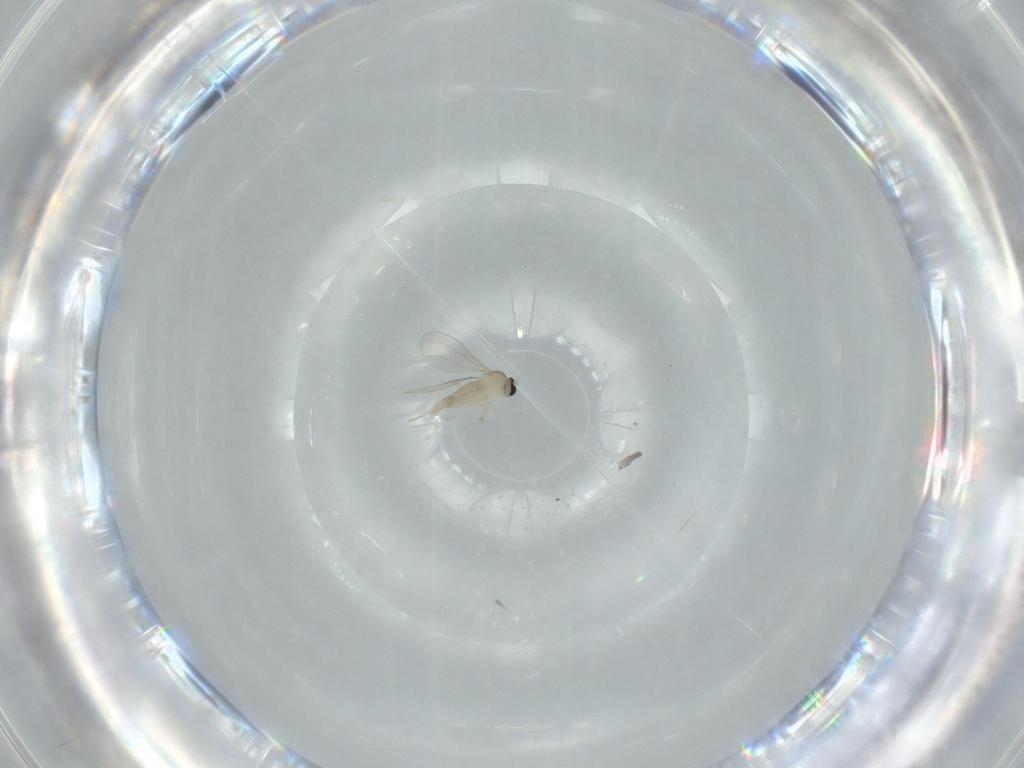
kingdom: Animalia
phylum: Arthropoda
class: Insecta
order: Diptera
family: Cecidomyiidae
